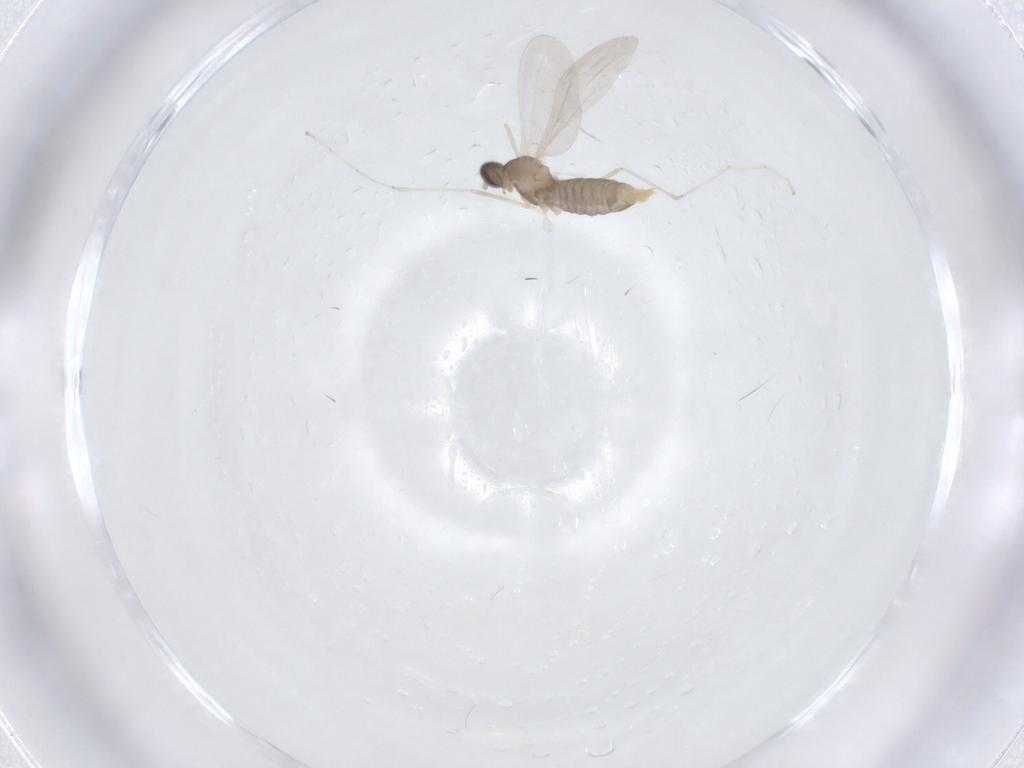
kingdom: Animalia
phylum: Arthropoda
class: Insecta
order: Diptera
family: Cecidomyiidae
